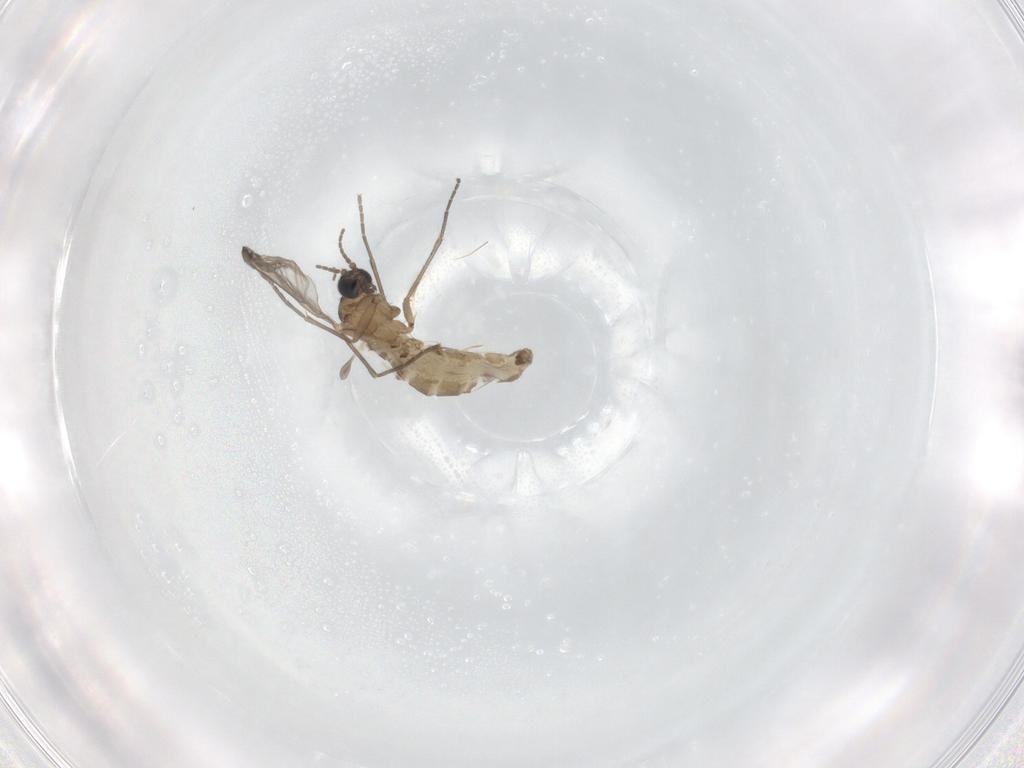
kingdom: Animalia
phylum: Arthropoda
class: Insecta
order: Diptera
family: Sciaridae
